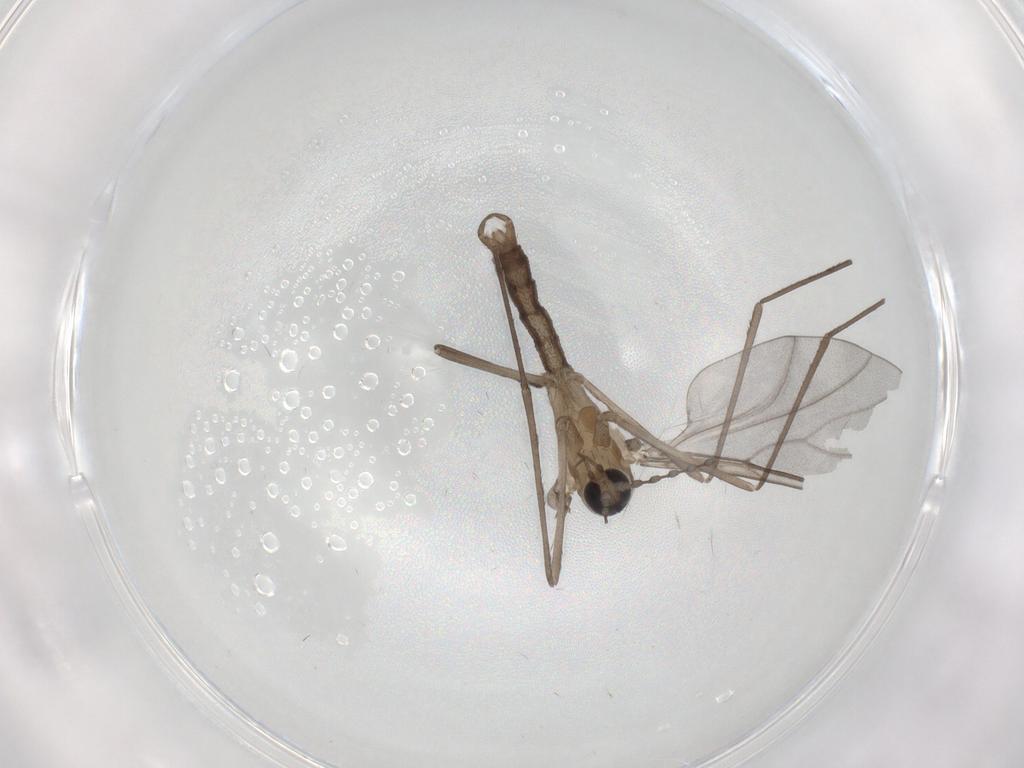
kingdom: Animalia
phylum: Arthropoda
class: Insecta
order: Diptera
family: Cecidomyiidae
